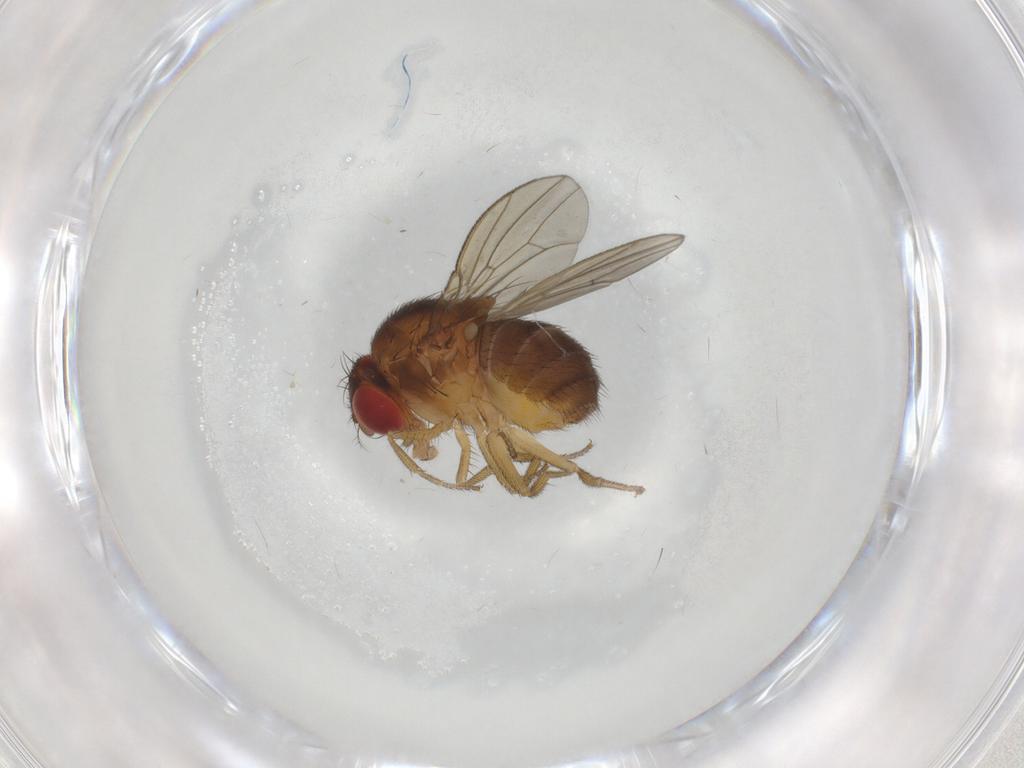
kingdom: Animalia
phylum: Arthropoda
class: Insecta
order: Diptera
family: Drosophilidae
